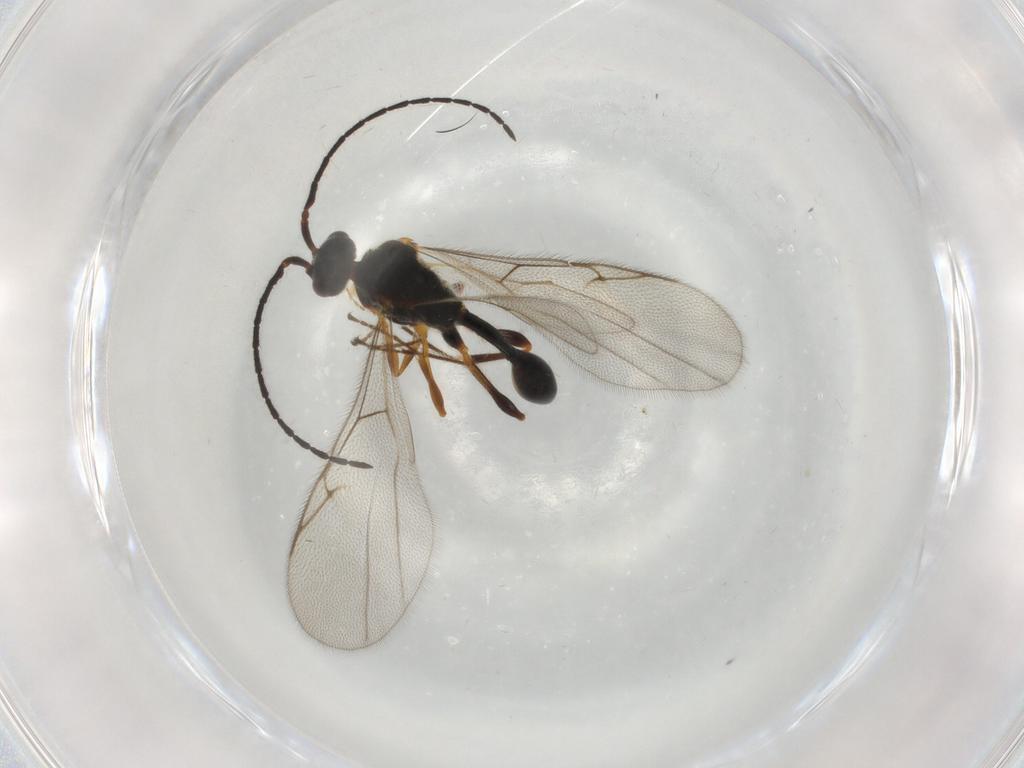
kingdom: Animalia
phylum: Arthropoda
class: Insecta
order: Hymenoptera
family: Diapriidae
